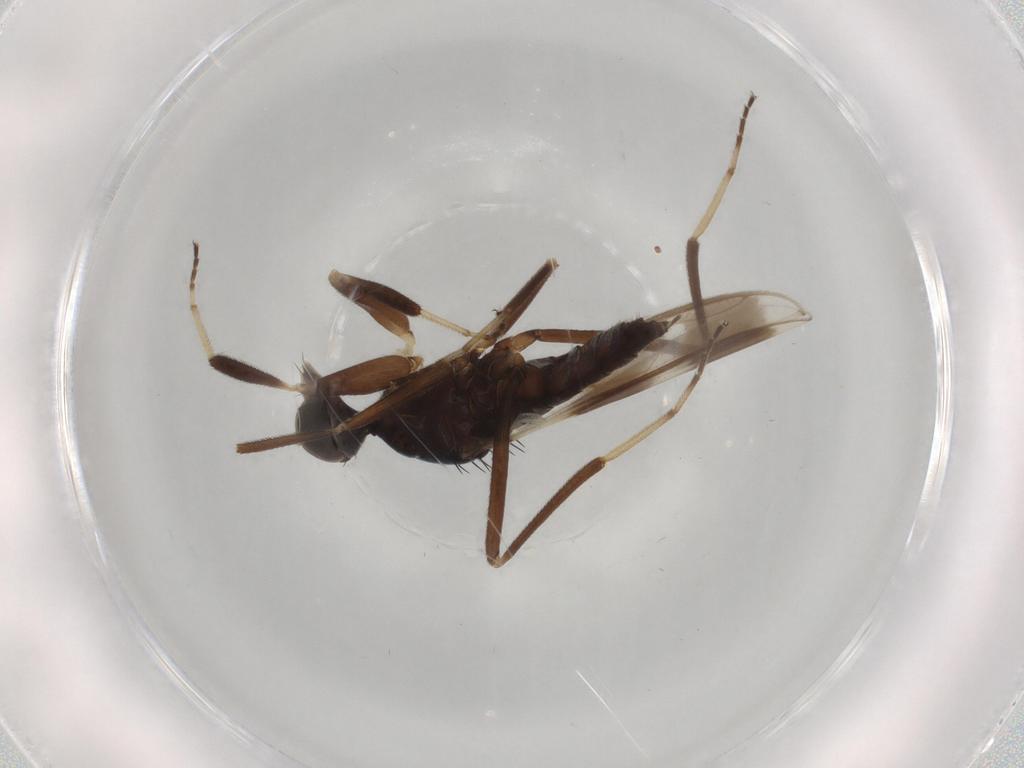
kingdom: Animalia
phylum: Arthropoda
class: Insecta
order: Diptera
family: Hybotidae
